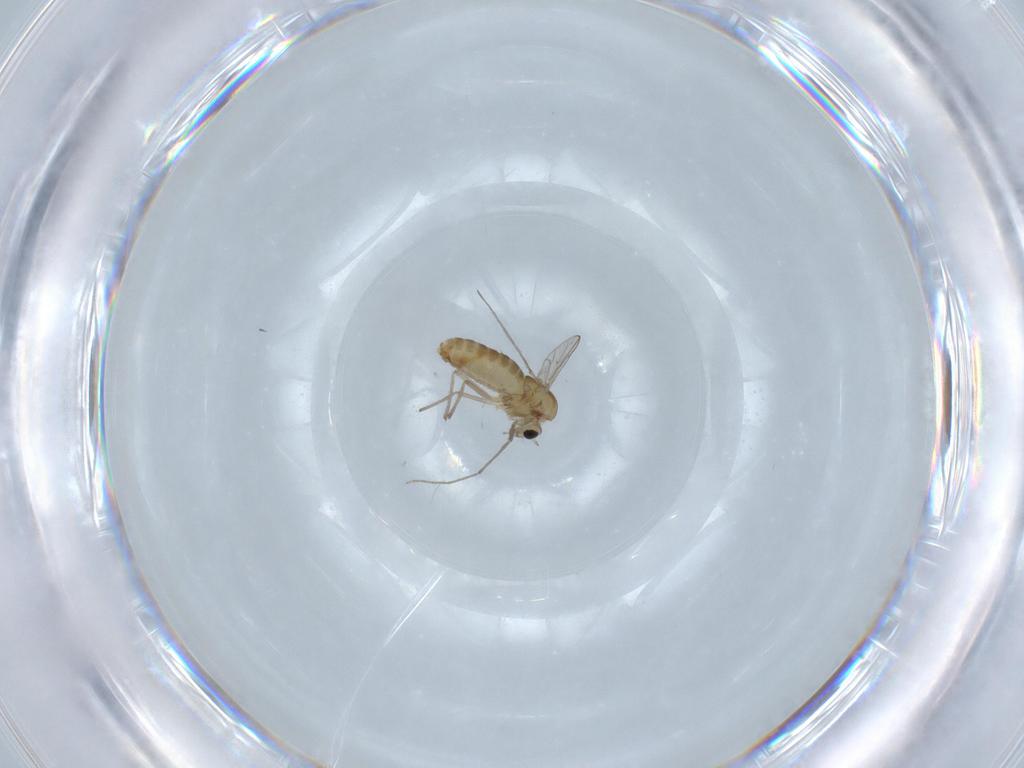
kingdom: Animalia
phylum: Arthropoda
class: Insecta
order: Diptera
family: Chironomidae
